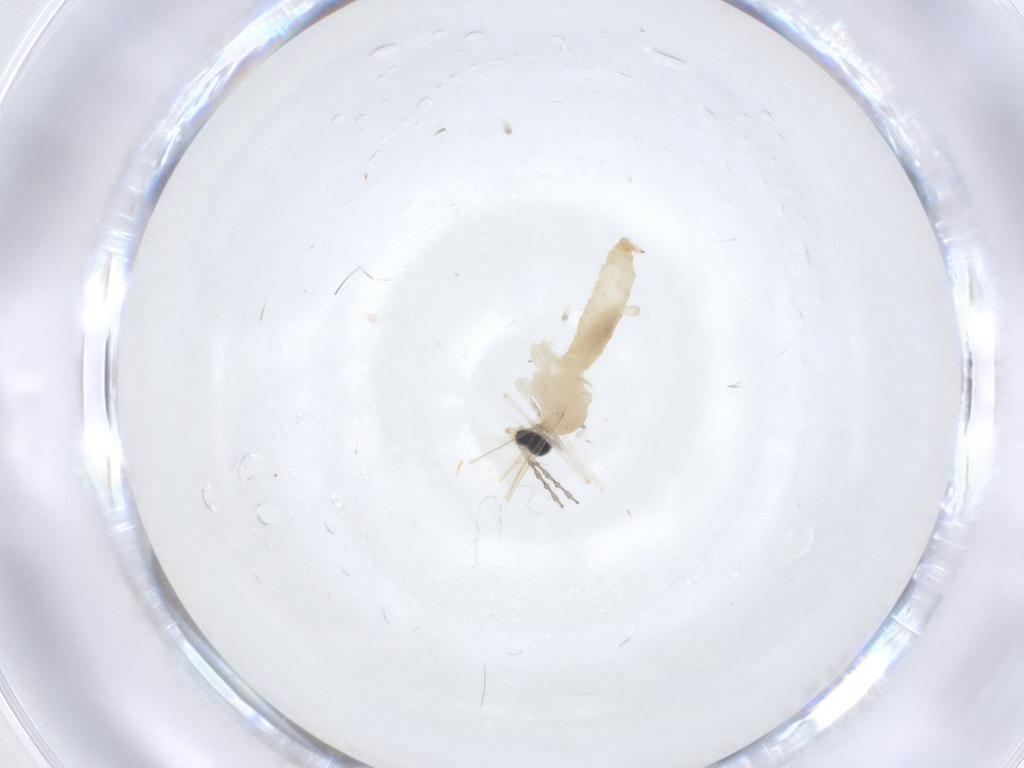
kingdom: Animalia
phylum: Arthropoda
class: Insecta
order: Diptera
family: Cecidomyiidae
